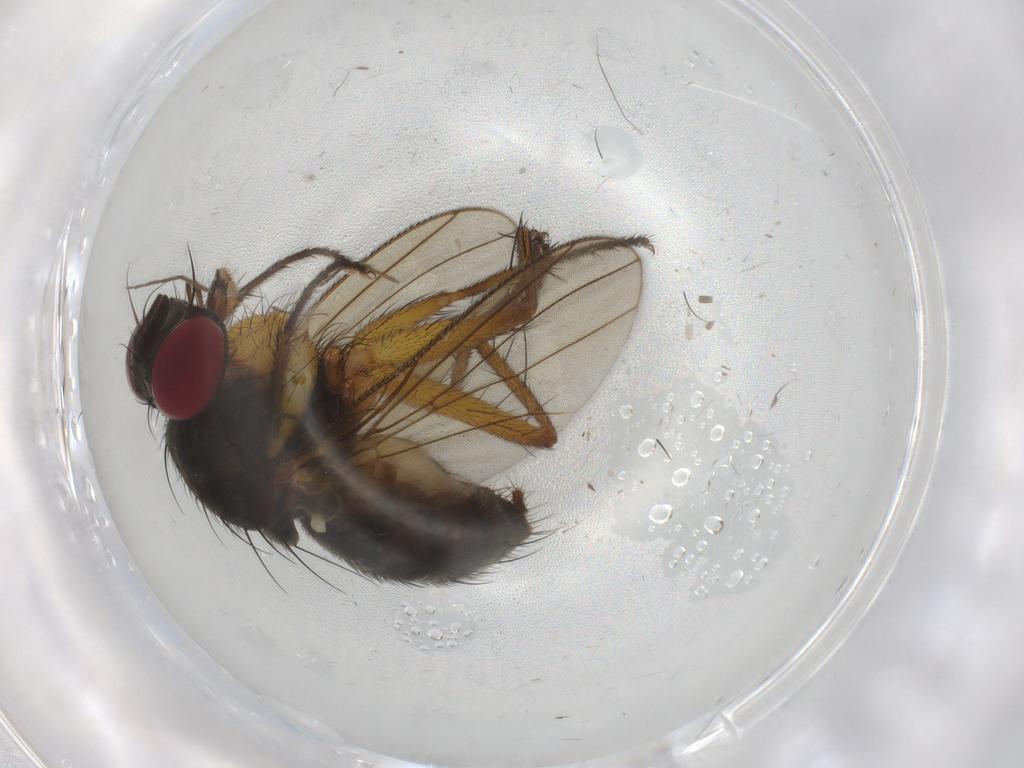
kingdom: Animalia
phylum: Arthropoda
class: Insecta
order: Diptera
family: Muscidae
